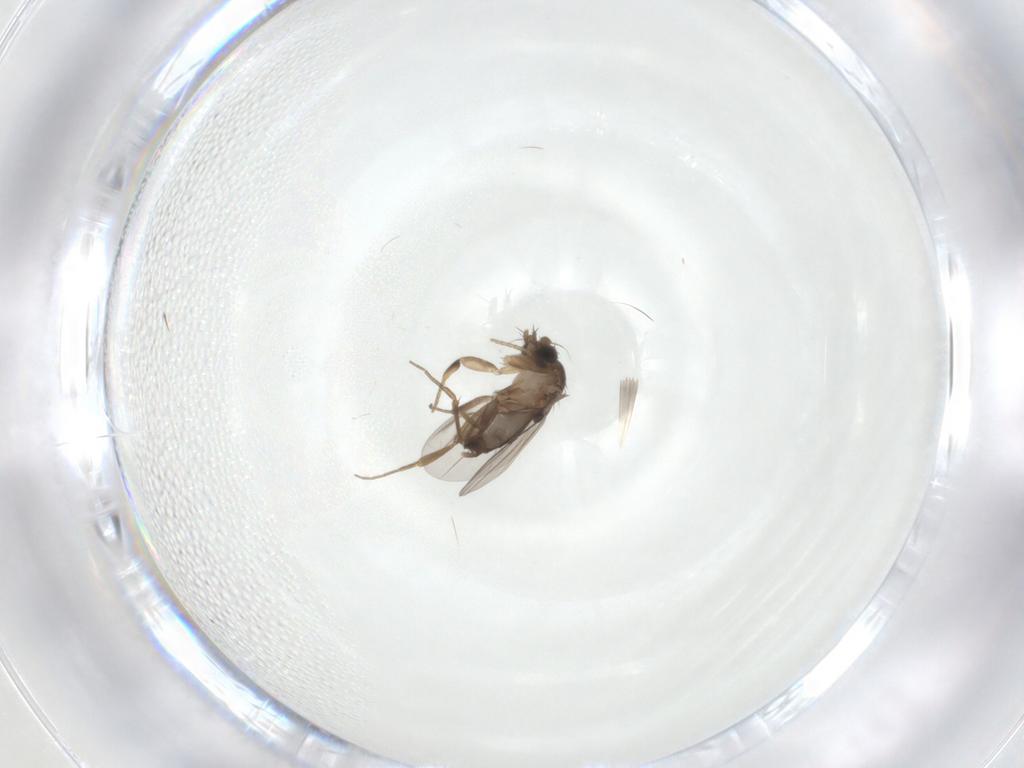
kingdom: Animalia
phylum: Arthropoda
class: Insecta
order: Diptera
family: Phoridae
